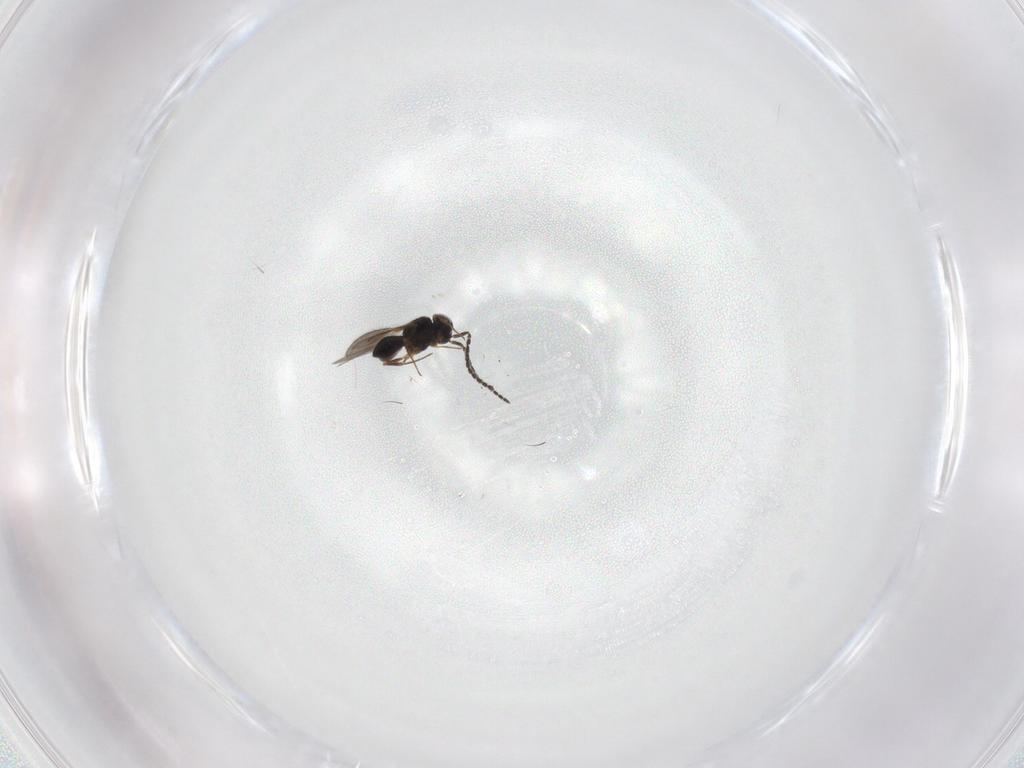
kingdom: Animalia
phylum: Arthropoda
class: Insecta
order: Hymenoptera
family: Scelionidae
